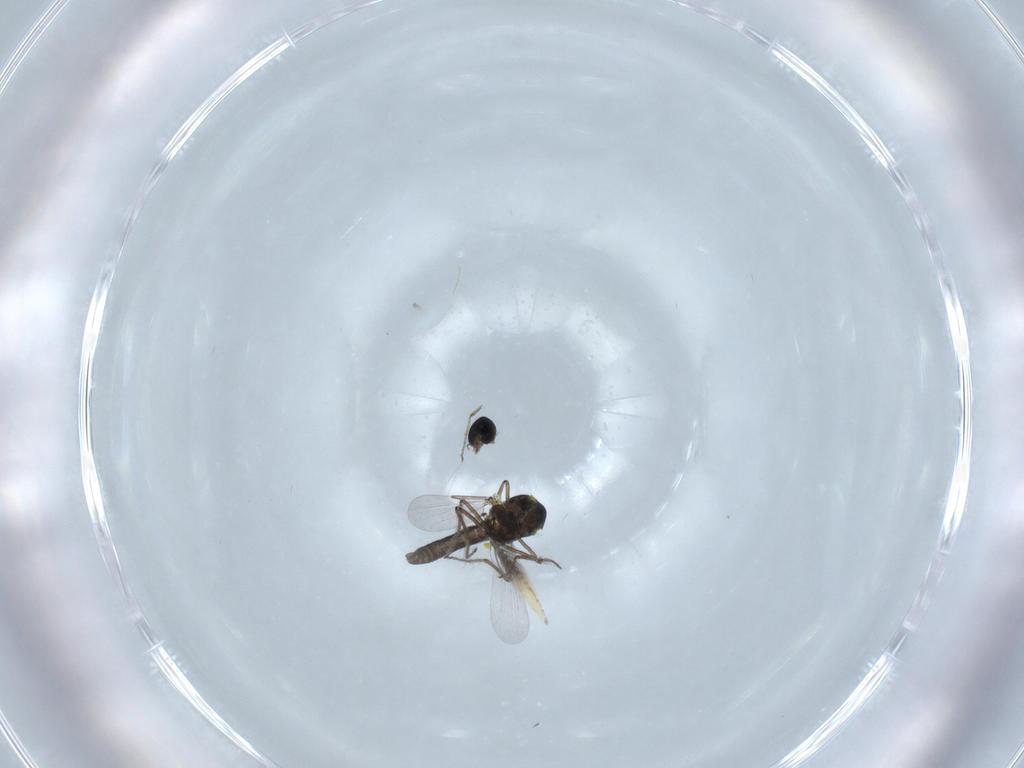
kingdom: Animalia
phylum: Arthropoda
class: Insecta
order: Diptera
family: Ceratopogonidae
